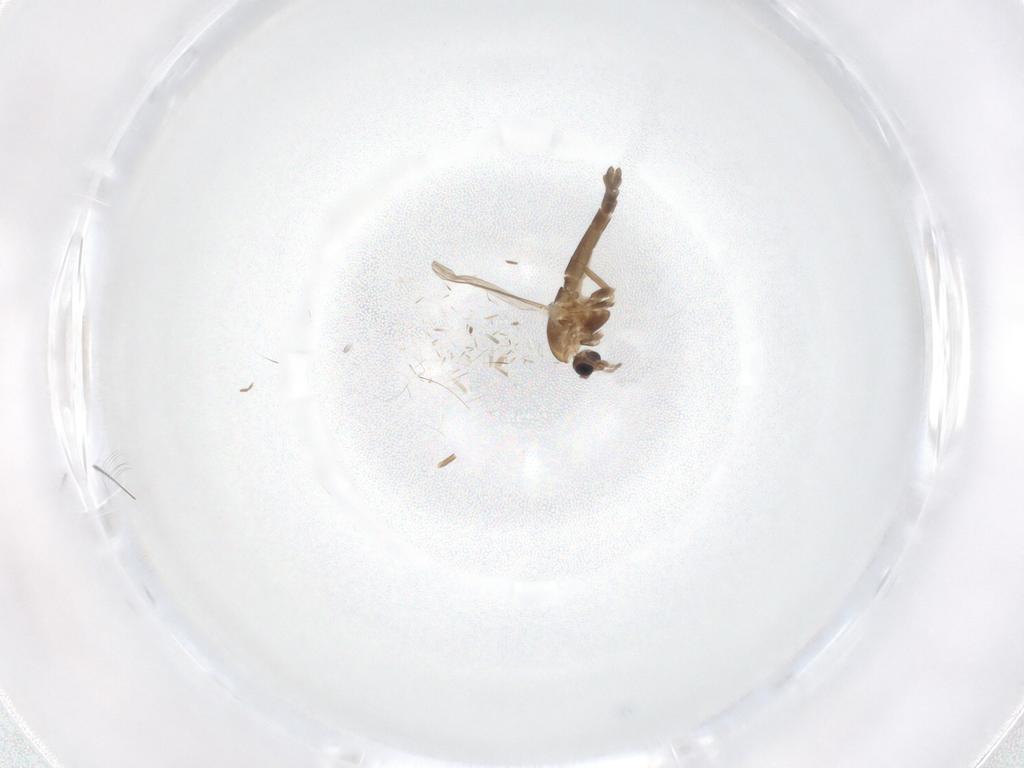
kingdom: Animalia
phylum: Arthropoda
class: Insecta
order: Diptera
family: Chironomidae
